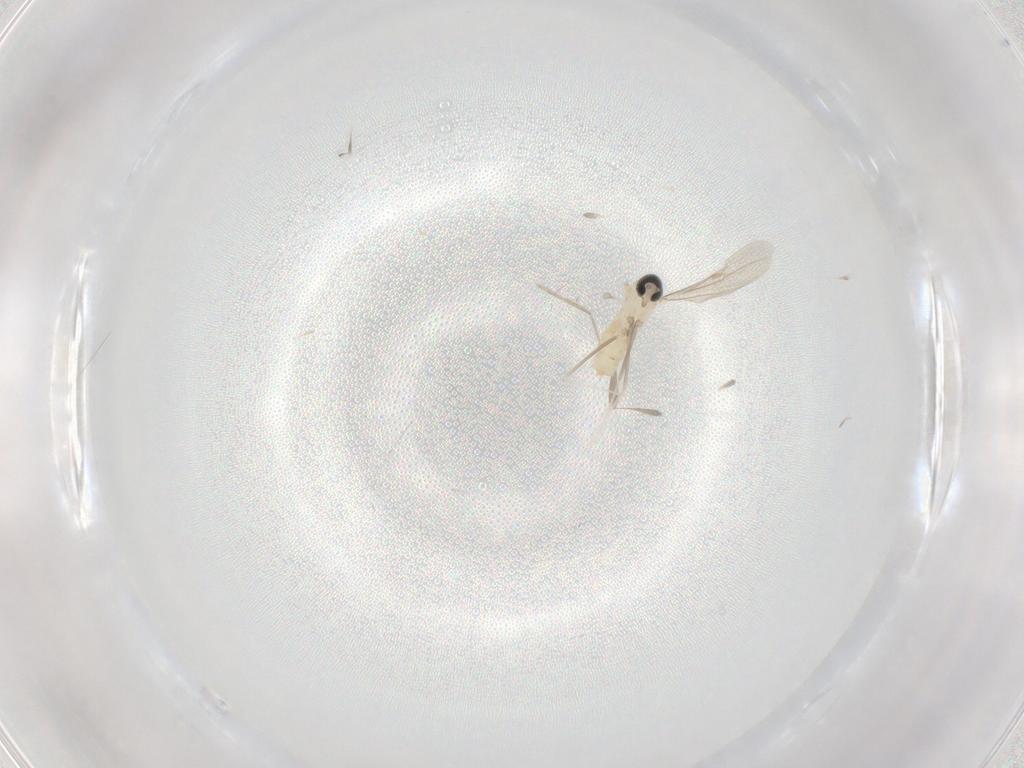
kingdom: Animalia
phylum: Arthropoda
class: Insecta
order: Diptera
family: Cecidomyiidae
